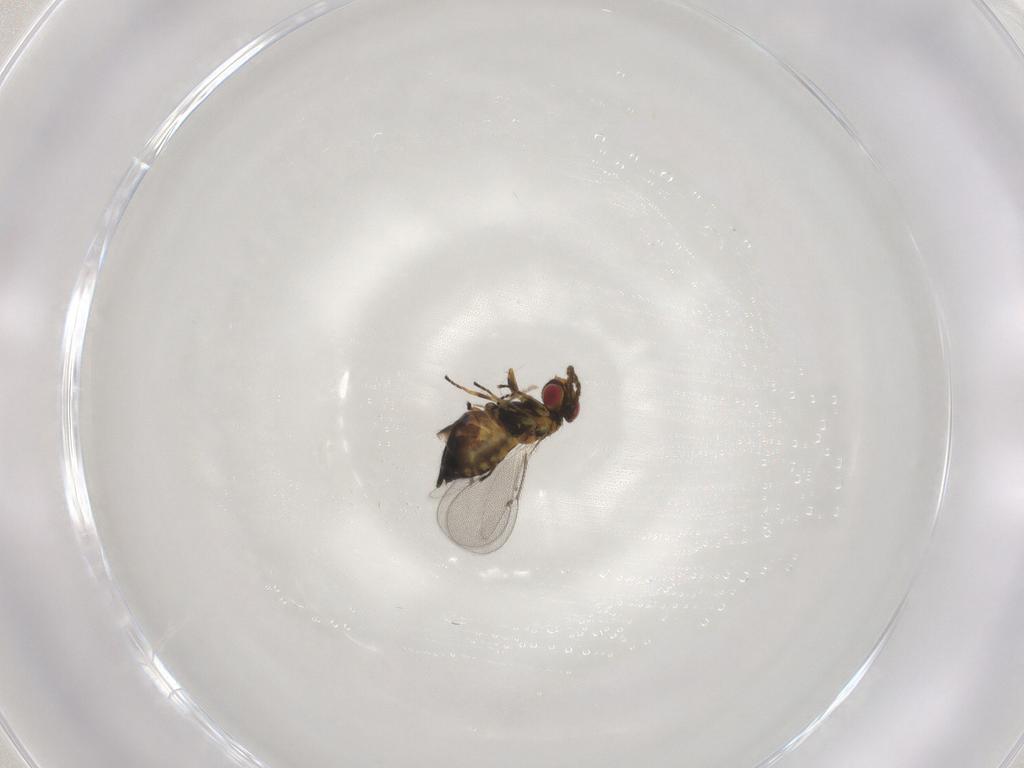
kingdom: Animalia
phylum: Arthropoda
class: Insecta
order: Hymenoptera
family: Eulophidae
